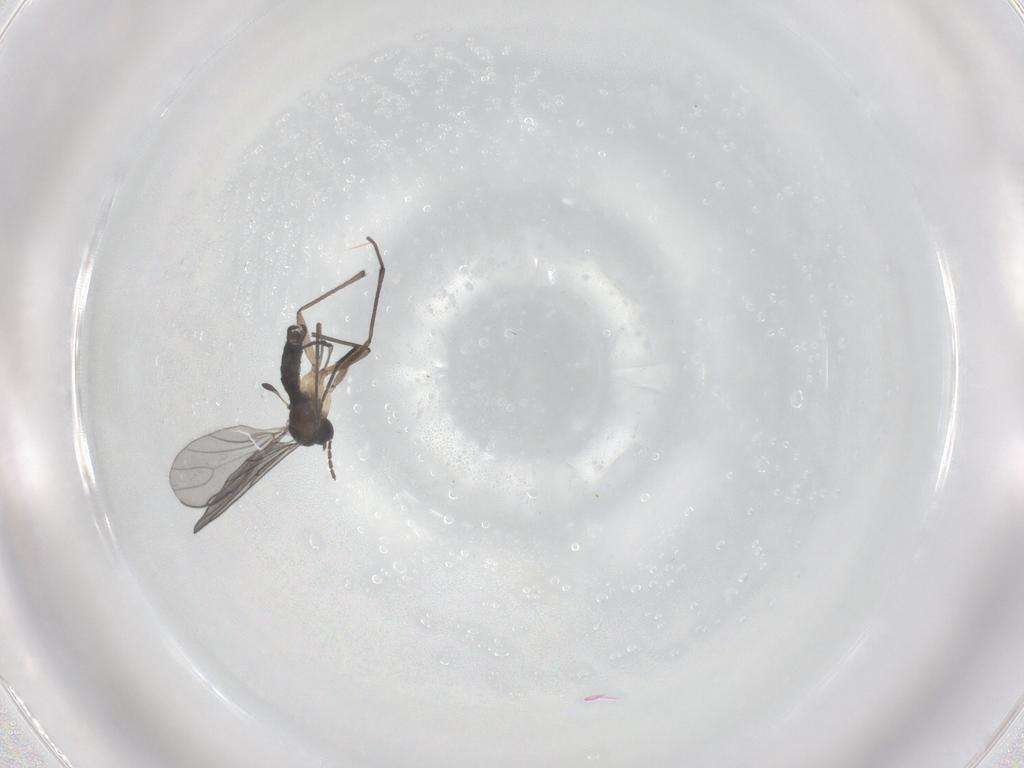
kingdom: Animalia
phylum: Arthropoda
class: Insecta
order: Diptera
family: Sciaridae
